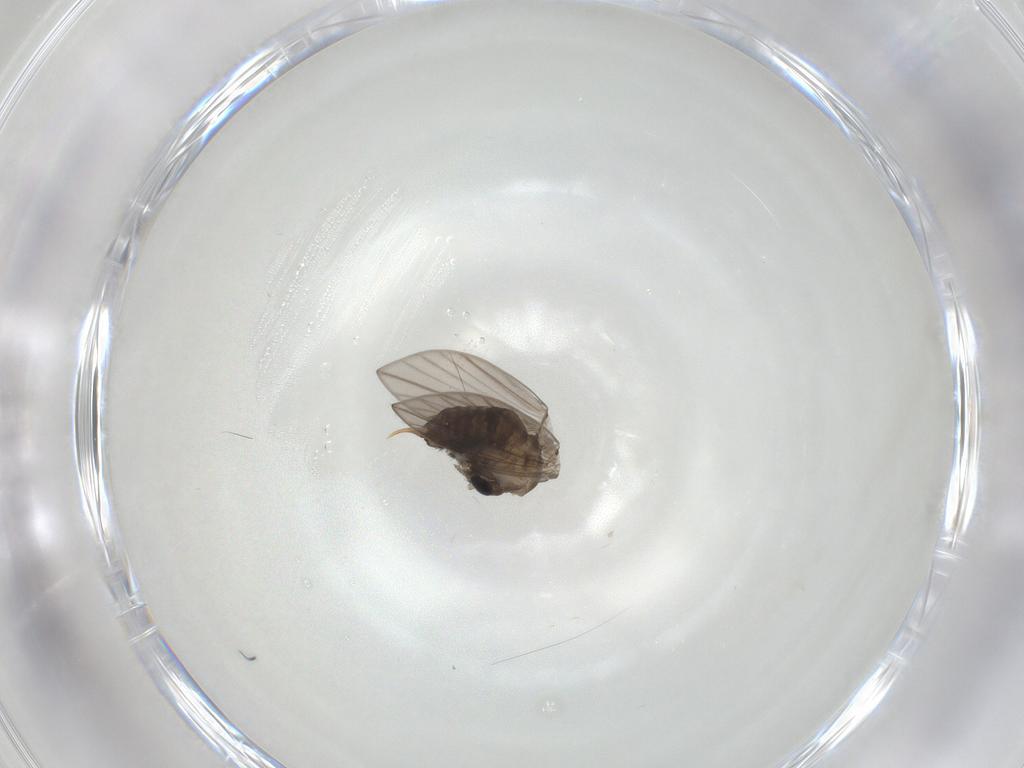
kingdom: Animalia
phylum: Arthropoda
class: Insecta
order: Diptera
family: Psychodidae
